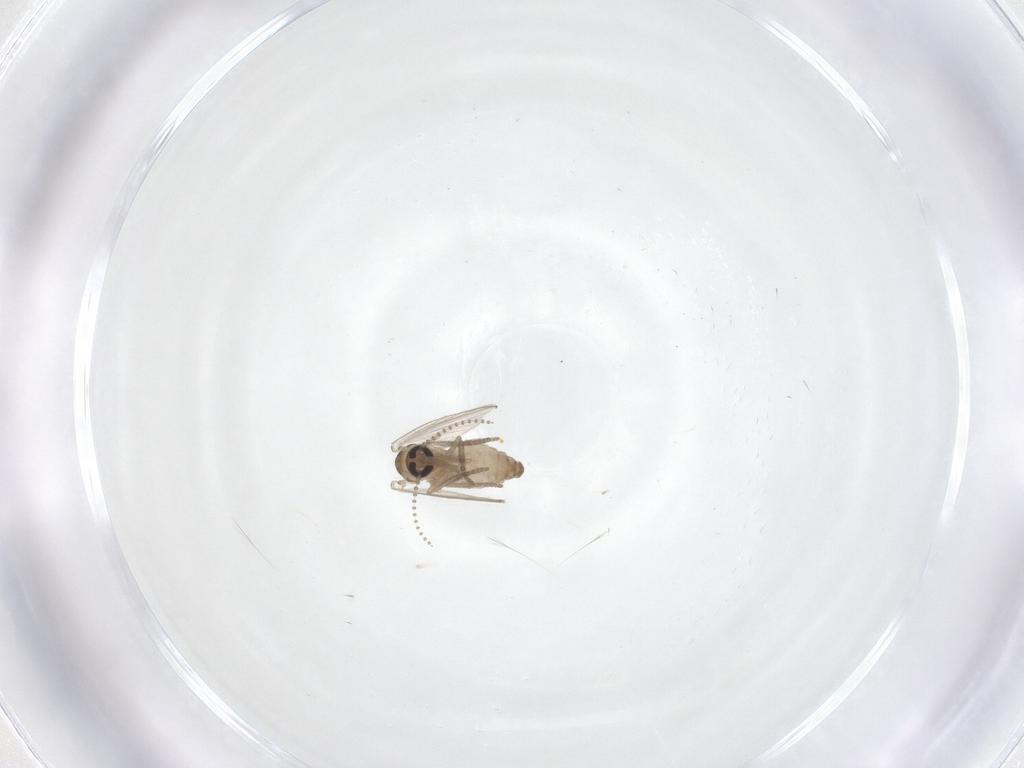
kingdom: Animalia
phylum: Arthropoda
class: Insecta
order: Diptera
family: Psychodidae
